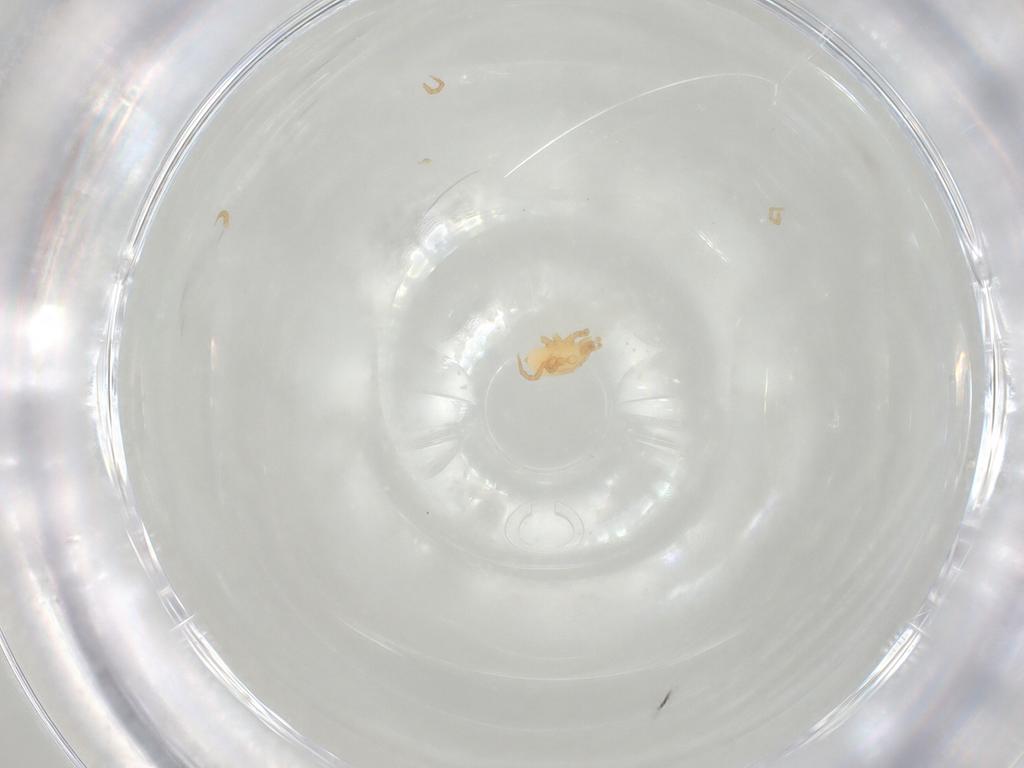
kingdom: Animalia
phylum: Arthropoda
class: Arachnida
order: Mesostigmata
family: Parasitidae
